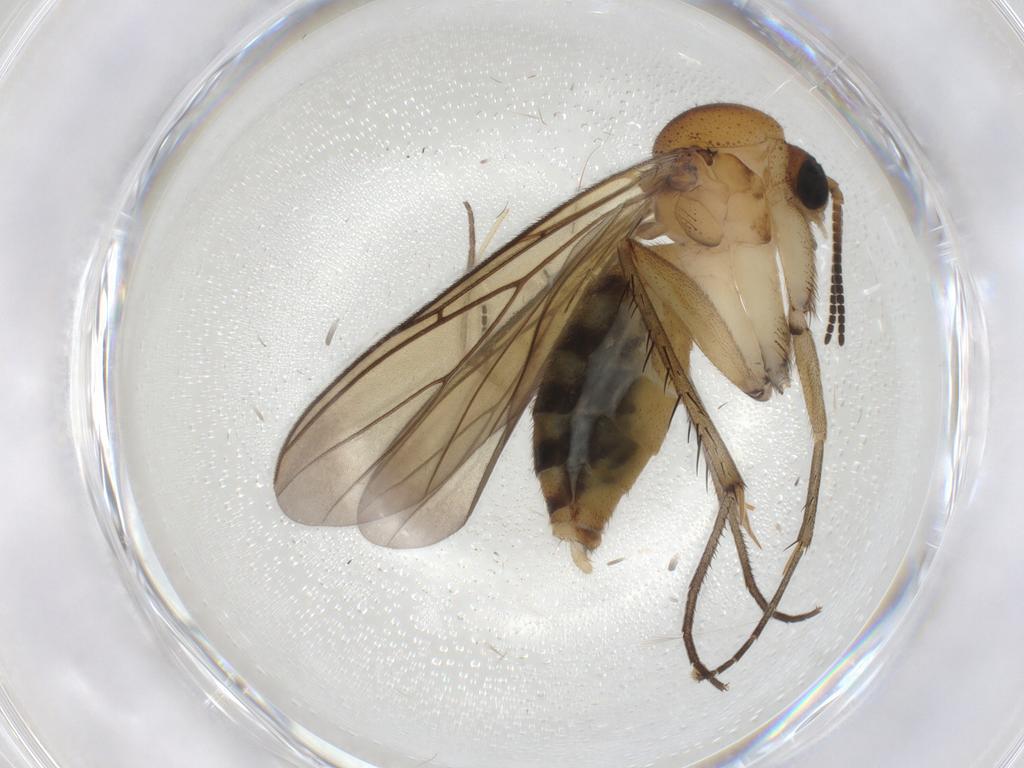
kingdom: Animalia
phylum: Arthropoda
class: Insecta
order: Diptera
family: Mycetophilidae
